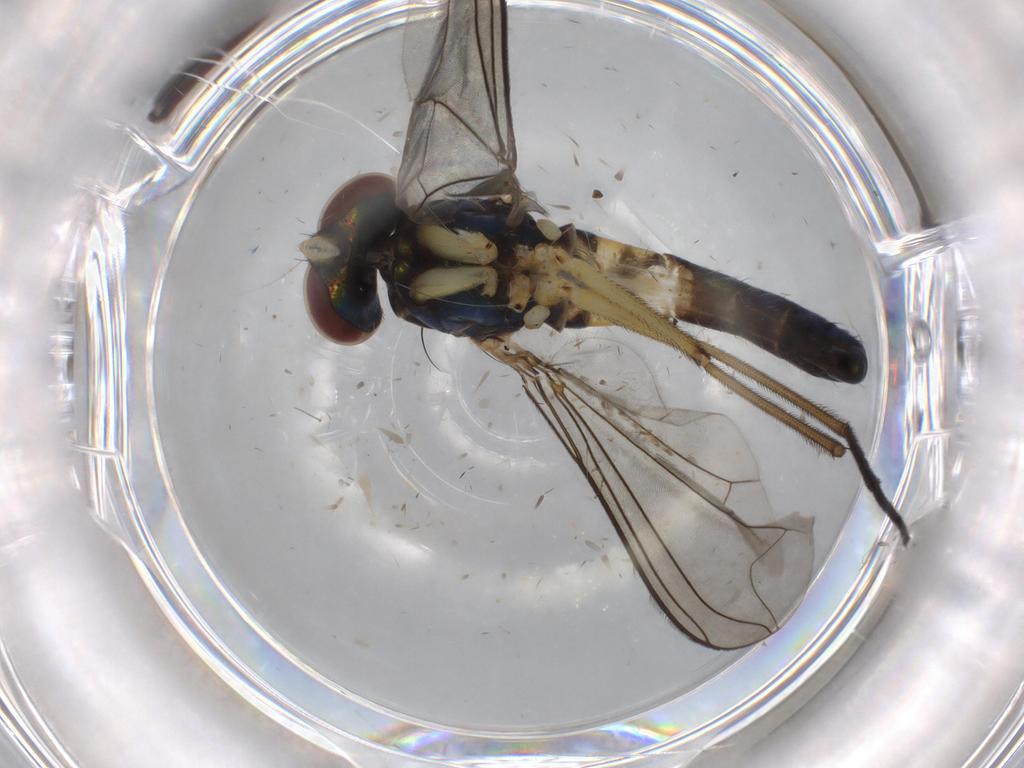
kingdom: Animalia
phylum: Arthropoda
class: Insecta
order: Diptera
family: Dolichopodidae
